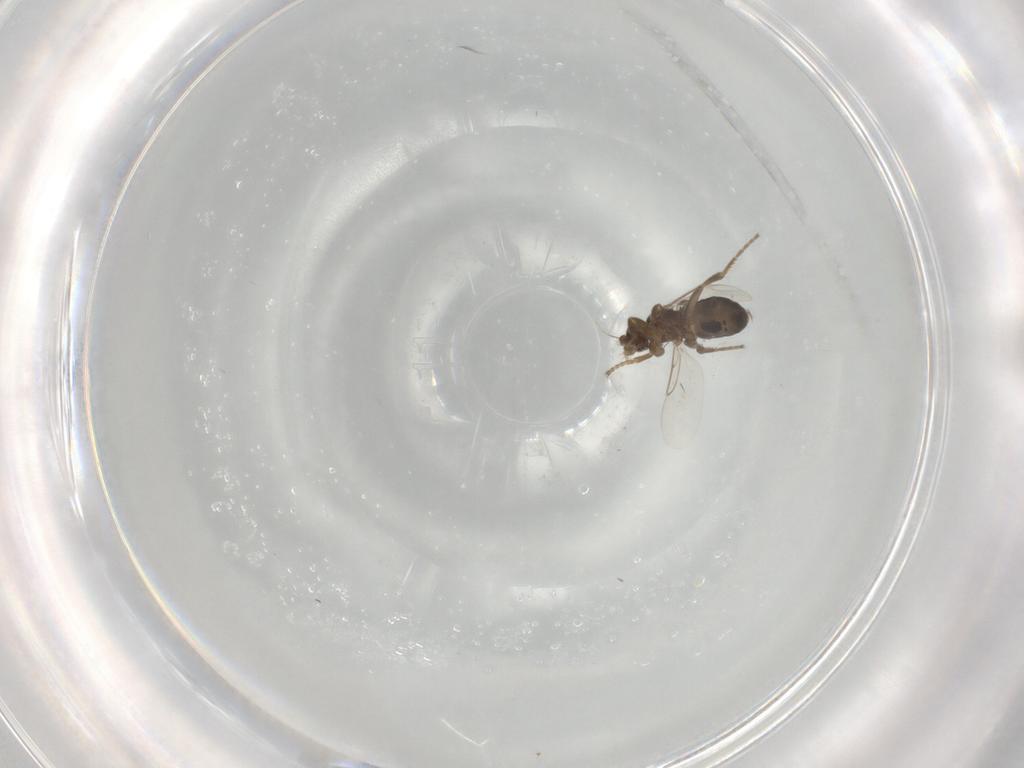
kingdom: Animalia
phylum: Arthropoda
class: Insecta
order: Diptera
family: Phoridae
